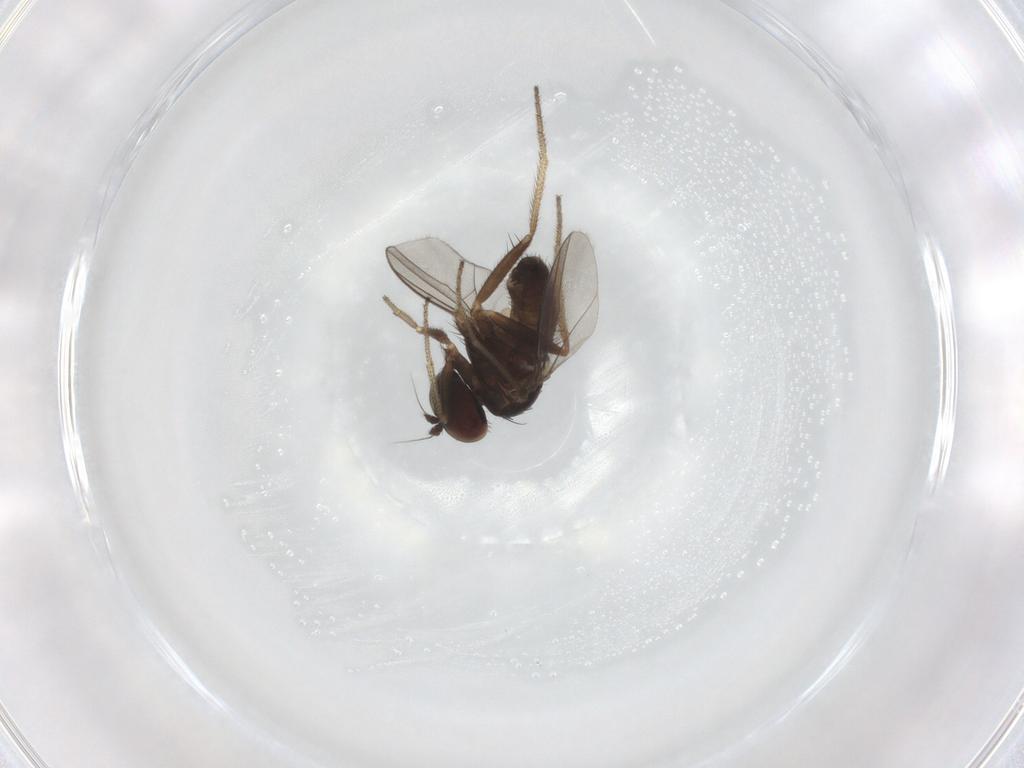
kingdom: Animalia
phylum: Arthropoda
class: Insecta
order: Diptera
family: Dolichopodidae
